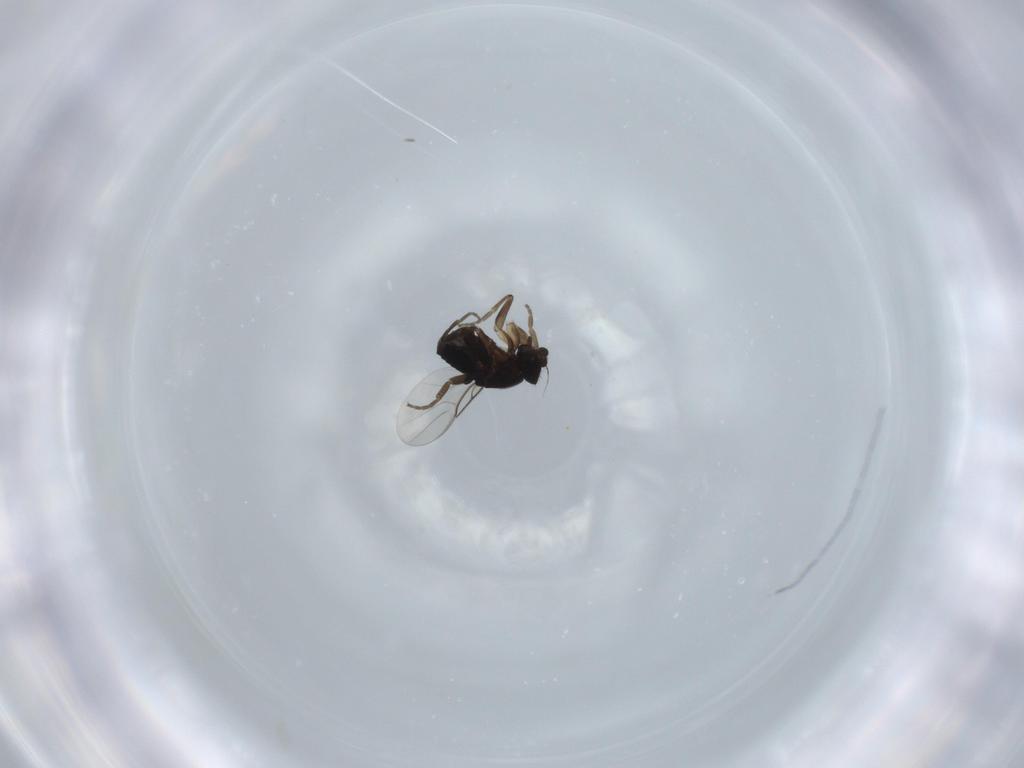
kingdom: Animalia
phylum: Arthropoda
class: Insecta
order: Diptera
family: Phoridae
